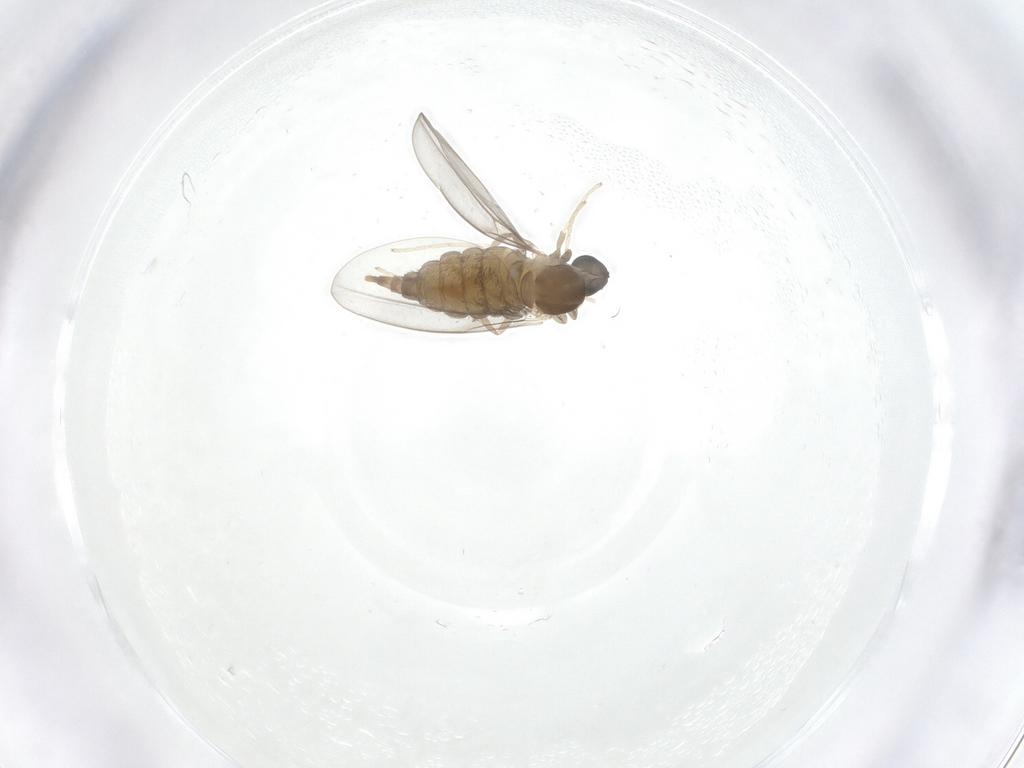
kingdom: Animalia
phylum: Arthropoda
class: Insecta
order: Diptera
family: Cecidomyiidae
